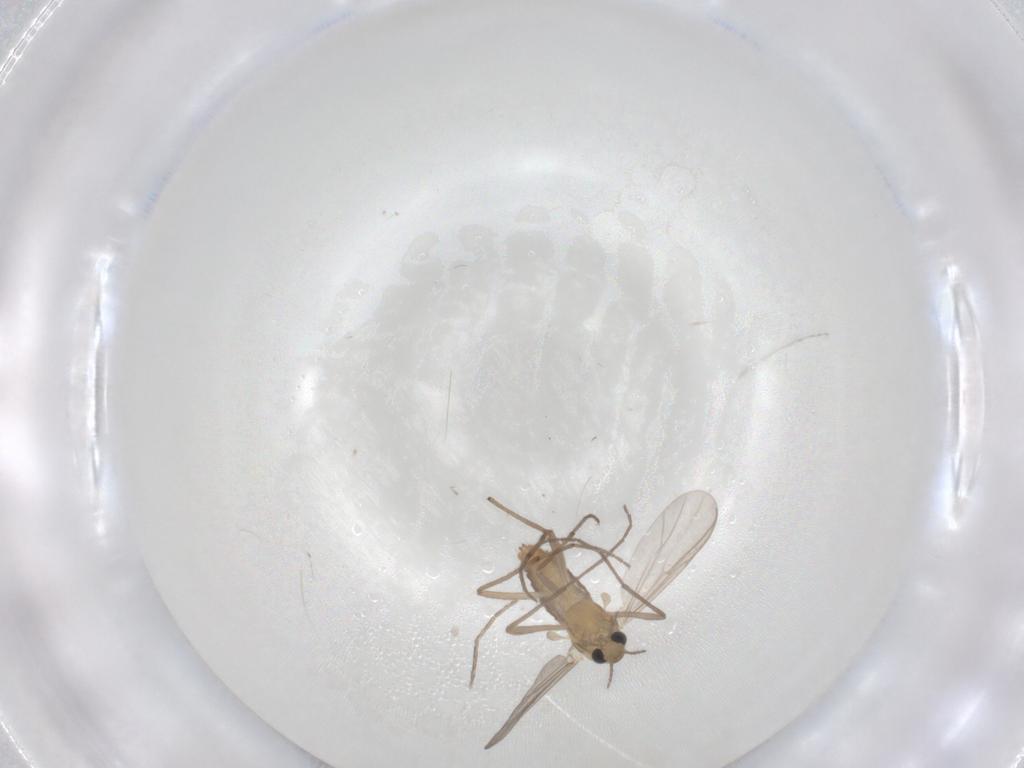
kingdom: Animalia
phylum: Arthropoda
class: Insecta
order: Diptera
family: Chironomidae
